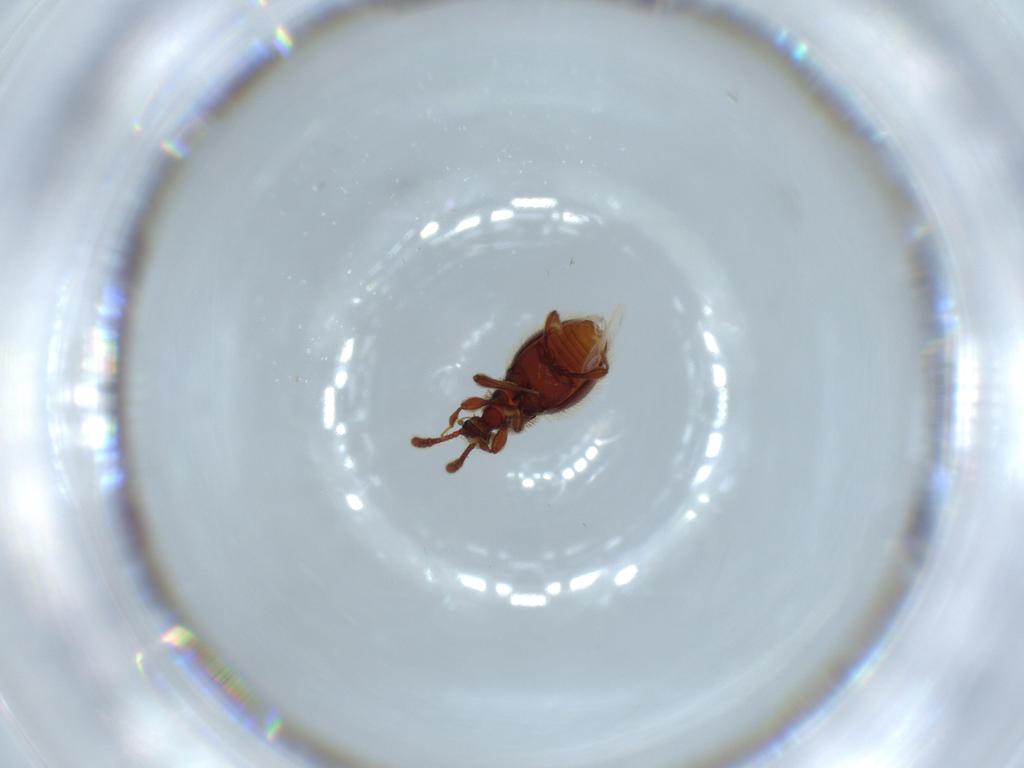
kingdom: Animalia
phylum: Arthropoda
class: Insecta
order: Coleoptera
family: Staphylinidae
